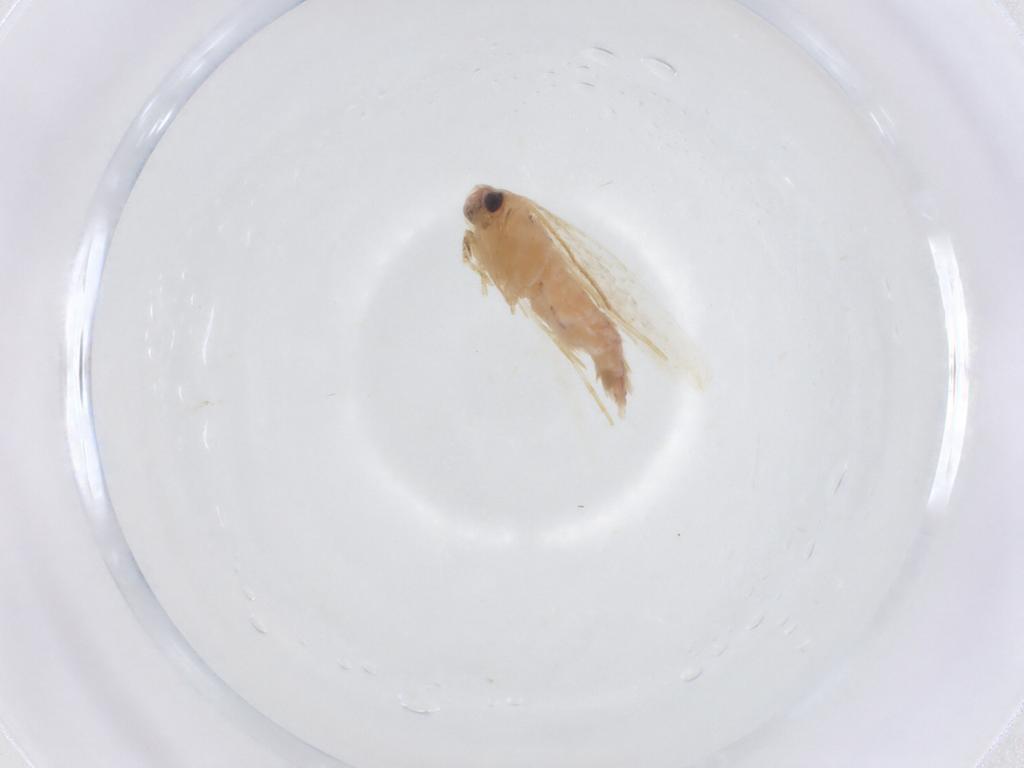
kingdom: Animalia
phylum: Arthropoda
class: Insecta
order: Lepidoptera
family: Erebidae
